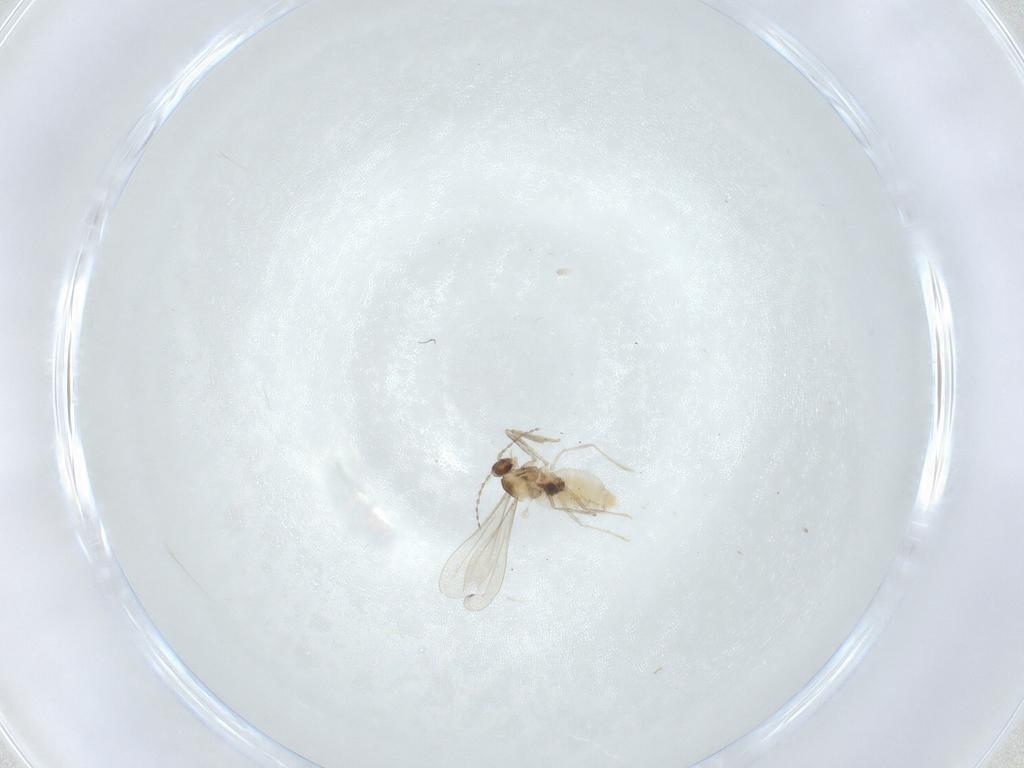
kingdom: Animalia
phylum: Arthropoda
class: Insecta
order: Diptera
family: Cecidomyiidae
